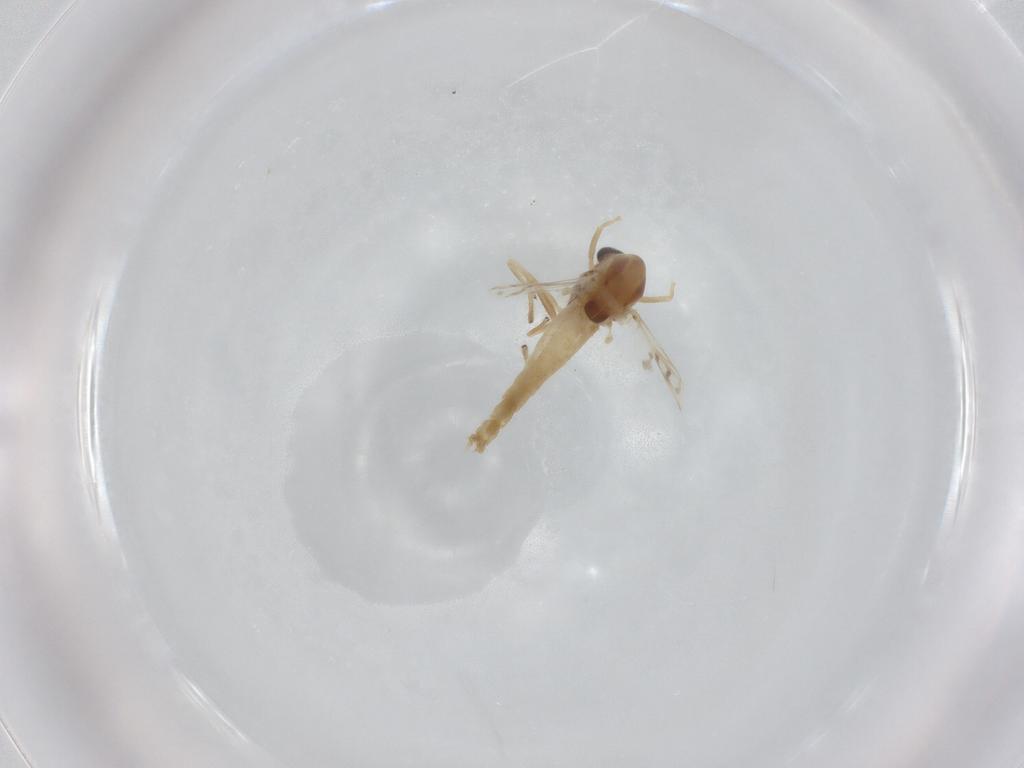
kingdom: Animalia
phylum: Arthropoda
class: Insecta
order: Diptera
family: Chironomidae
